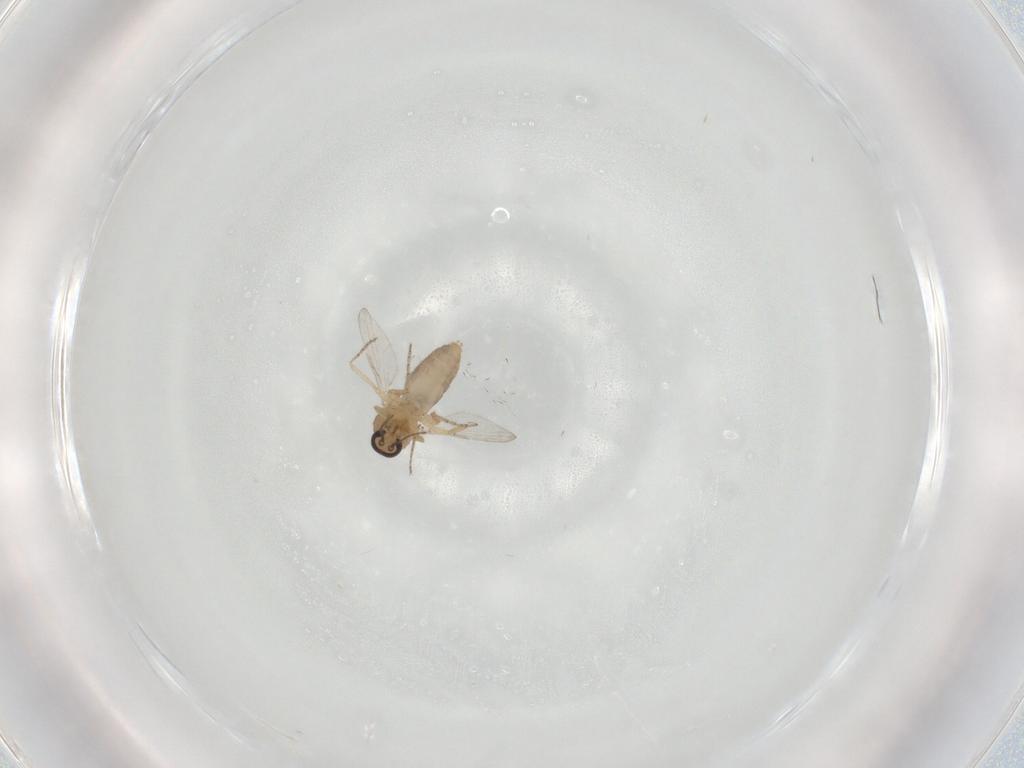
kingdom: Animalia
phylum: Arthropoda
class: Insecta
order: Diptera
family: Ceratopogonidae
